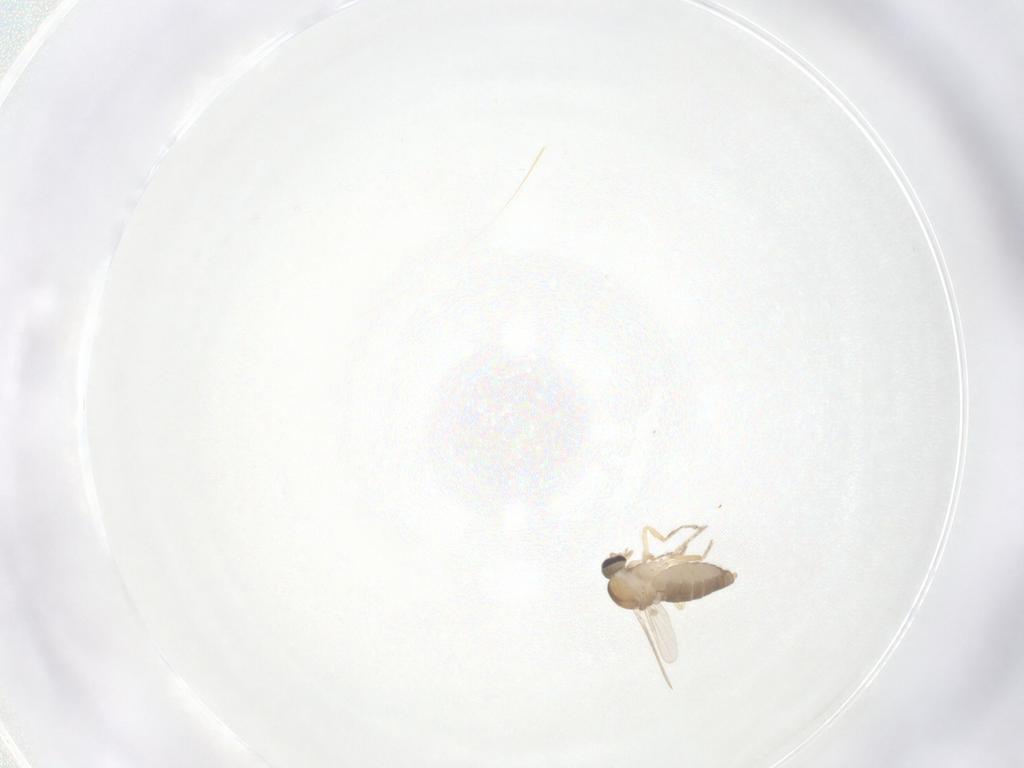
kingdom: Animalia
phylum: Arthropoda
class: Insecta
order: Diptera
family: Ceratopogonidae
